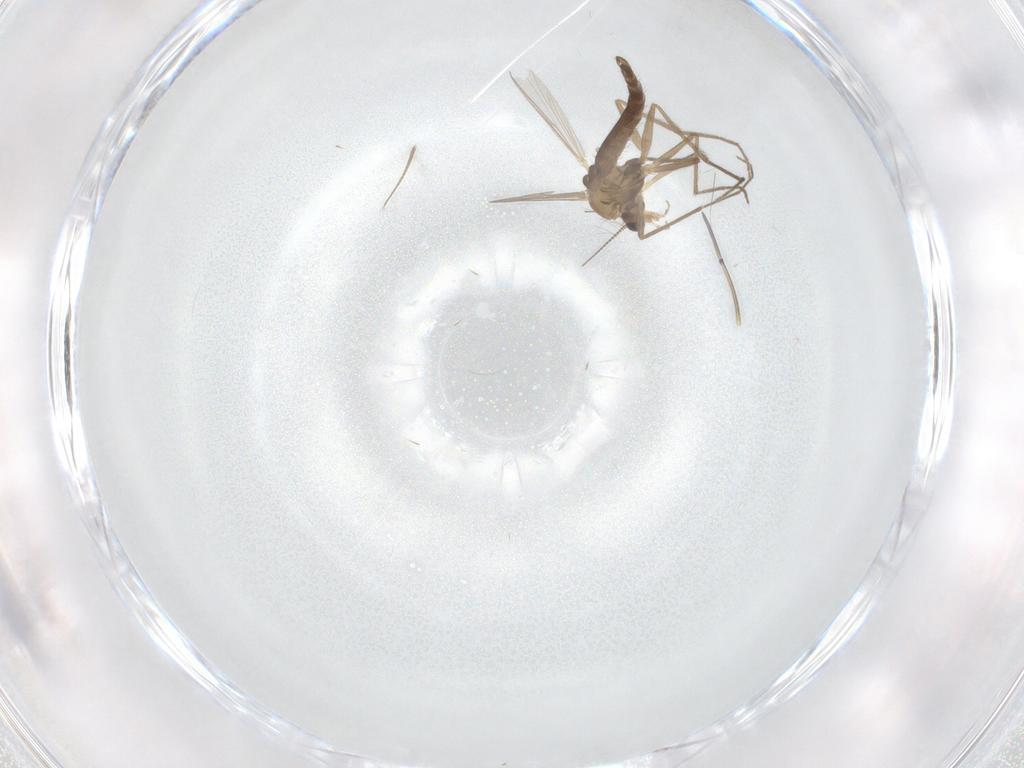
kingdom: Animalia
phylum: Arthropoda
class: Insecta
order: Diptera
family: Chironomidae
